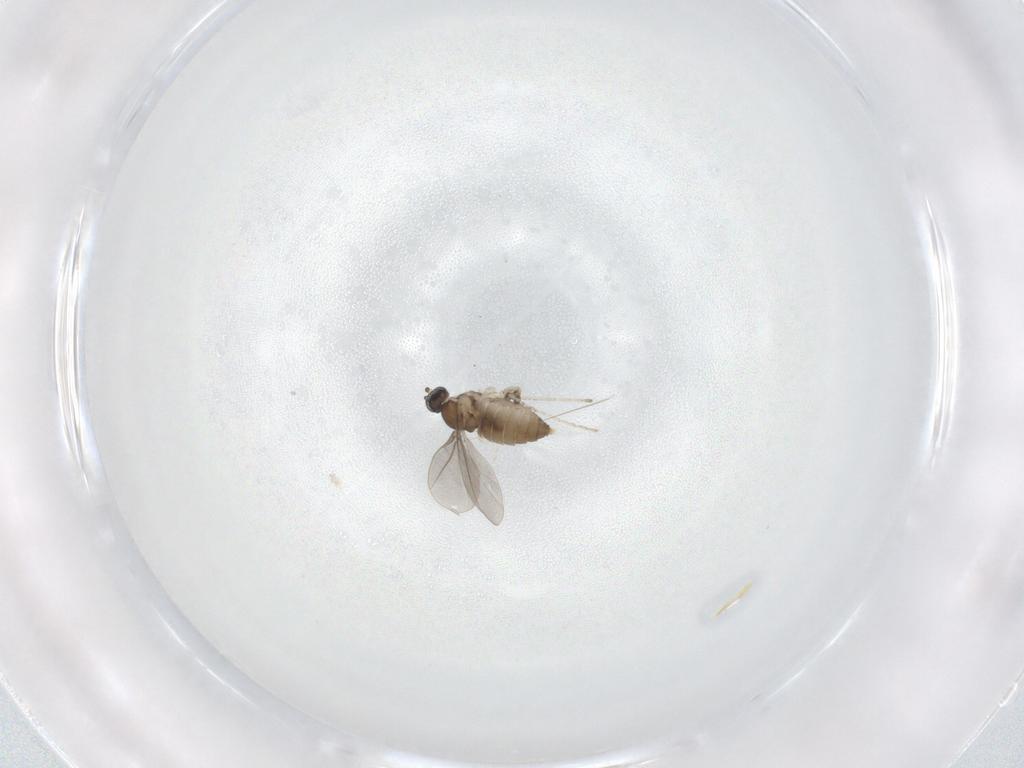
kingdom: Animalia
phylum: Arthropoda
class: Insecta
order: Diptera
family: Cecidomyiidae
